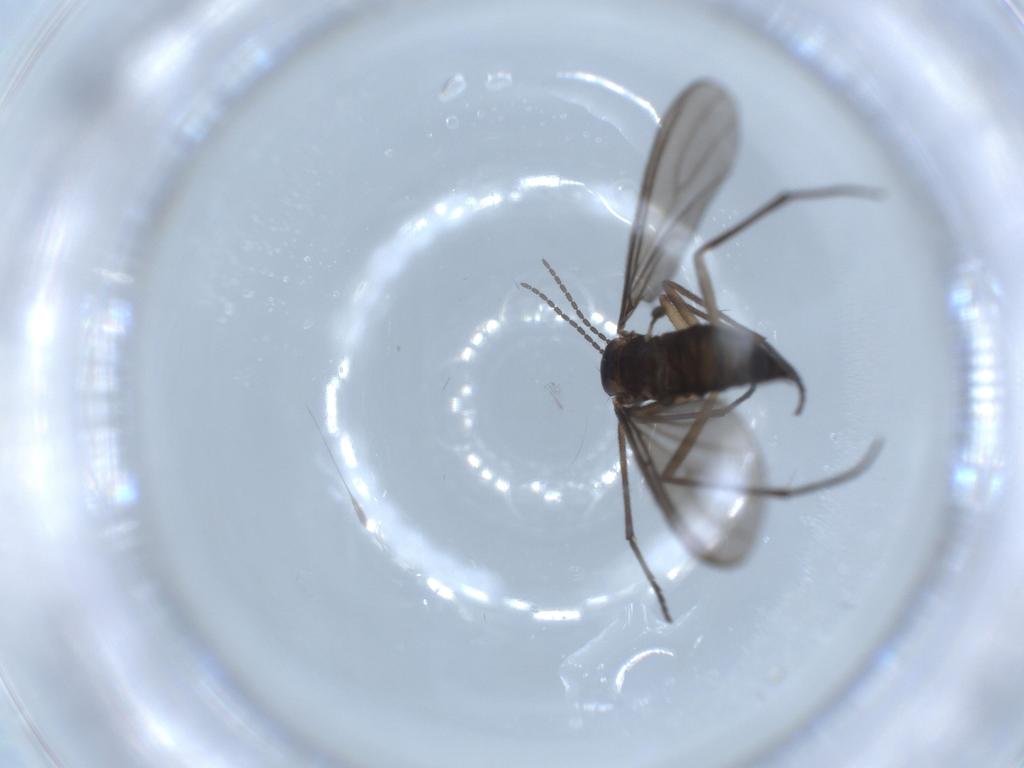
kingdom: Animalia
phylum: Arthropoda
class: Insecta
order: Diptera
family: Sciaridae
